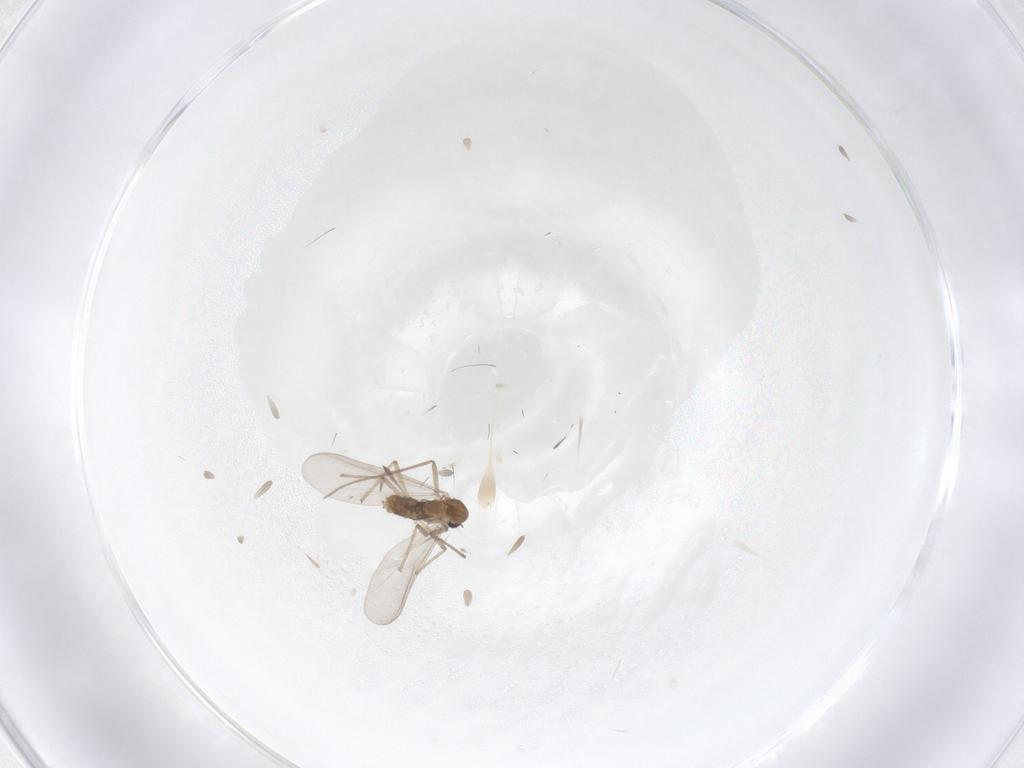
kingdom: Animalia
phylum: Arthropoda
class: Insecta
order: Diptera
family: Chironomidae
